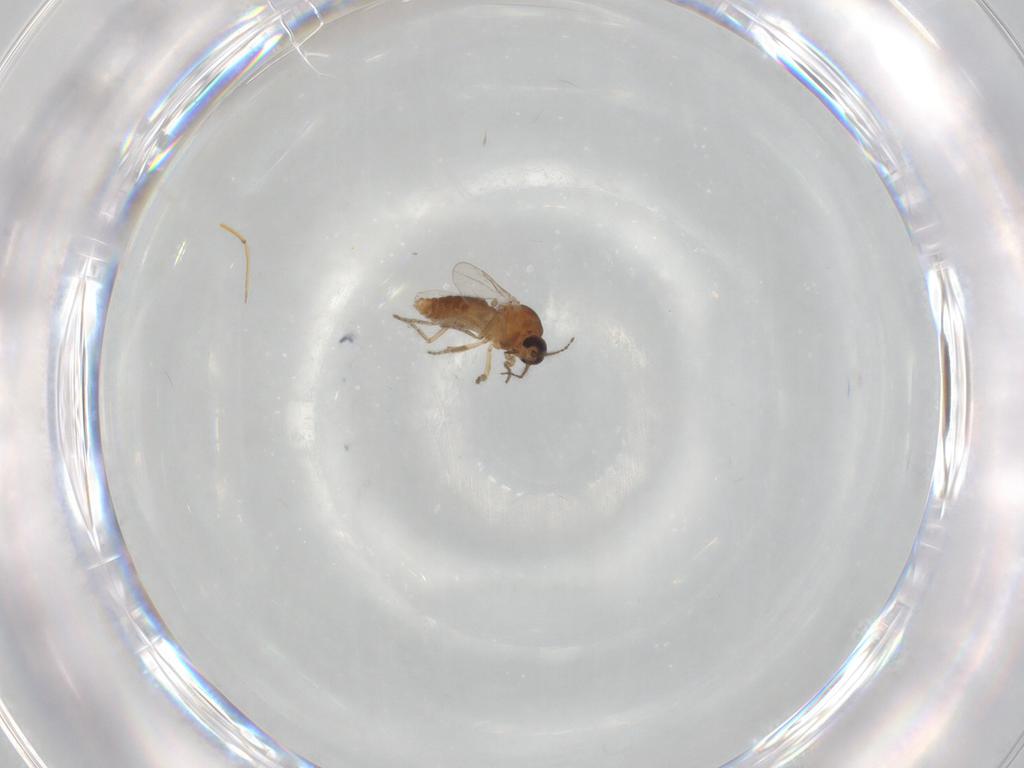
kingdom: Animalia
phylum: Arthropoda
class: Insecta
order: Diptera
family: Ceratopogonidae
